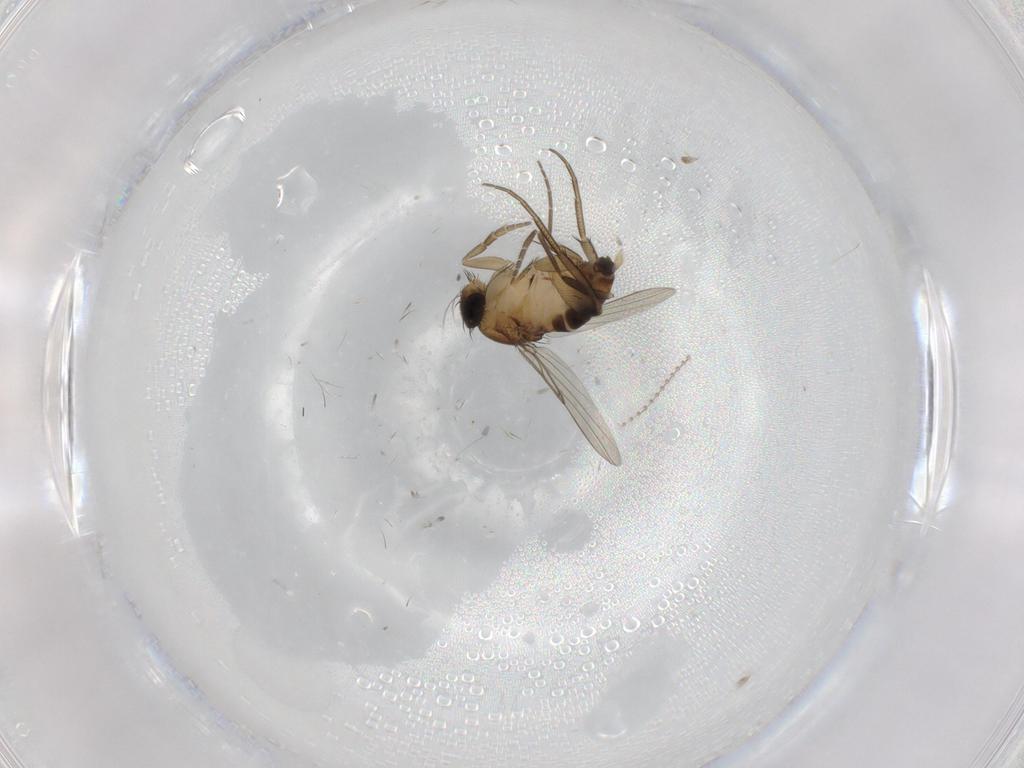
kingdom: Animalia
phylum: Arthropoda
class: Insecta
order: Diptera
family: Phoridae
